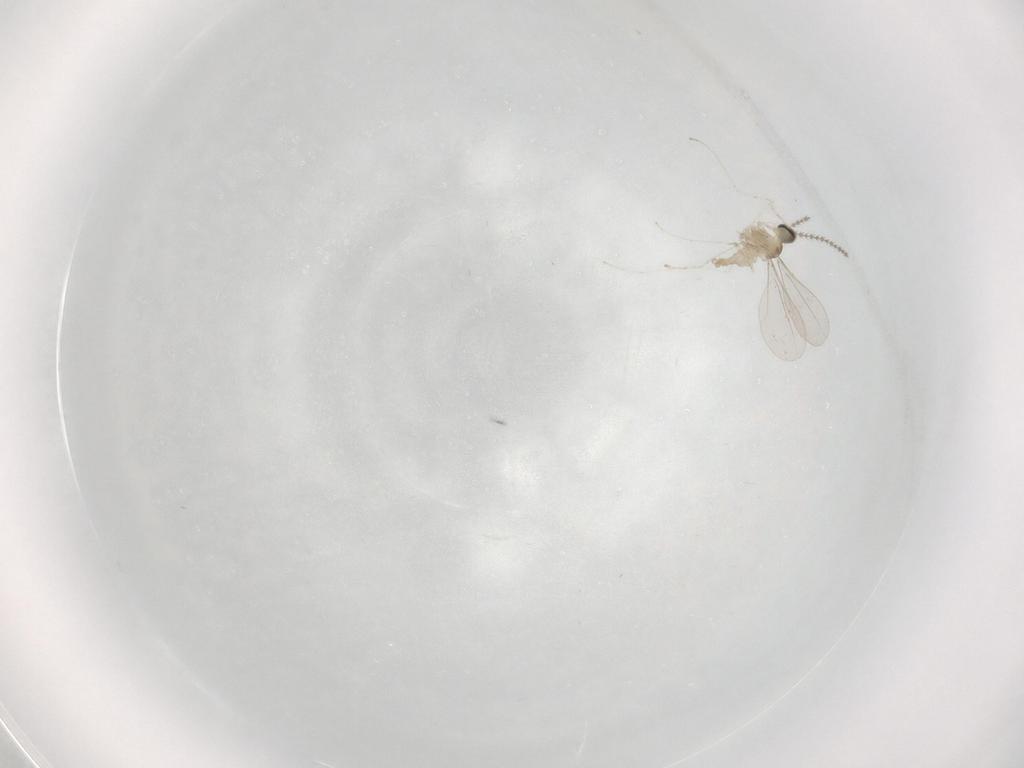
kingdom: Animalia
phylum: Arthropoda
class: Insecta
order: Diptera
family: Cecidomyiidae
